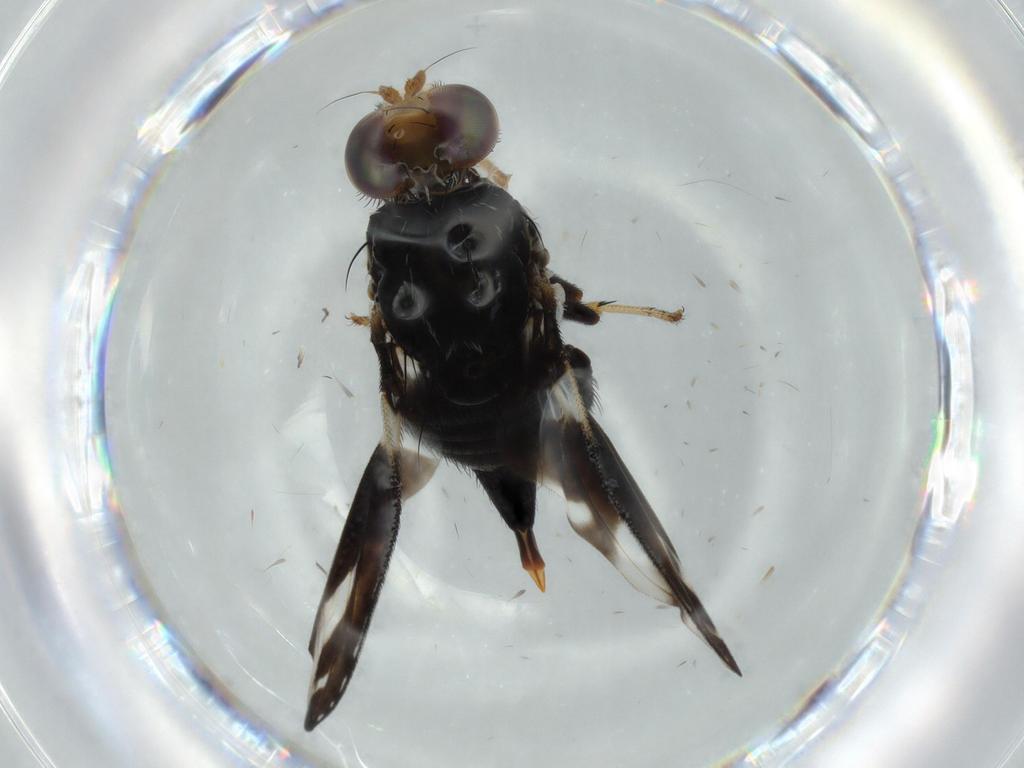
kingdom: Animalia
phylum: Arthropoda
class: Insecta
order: Diptera
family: Tephritidae
